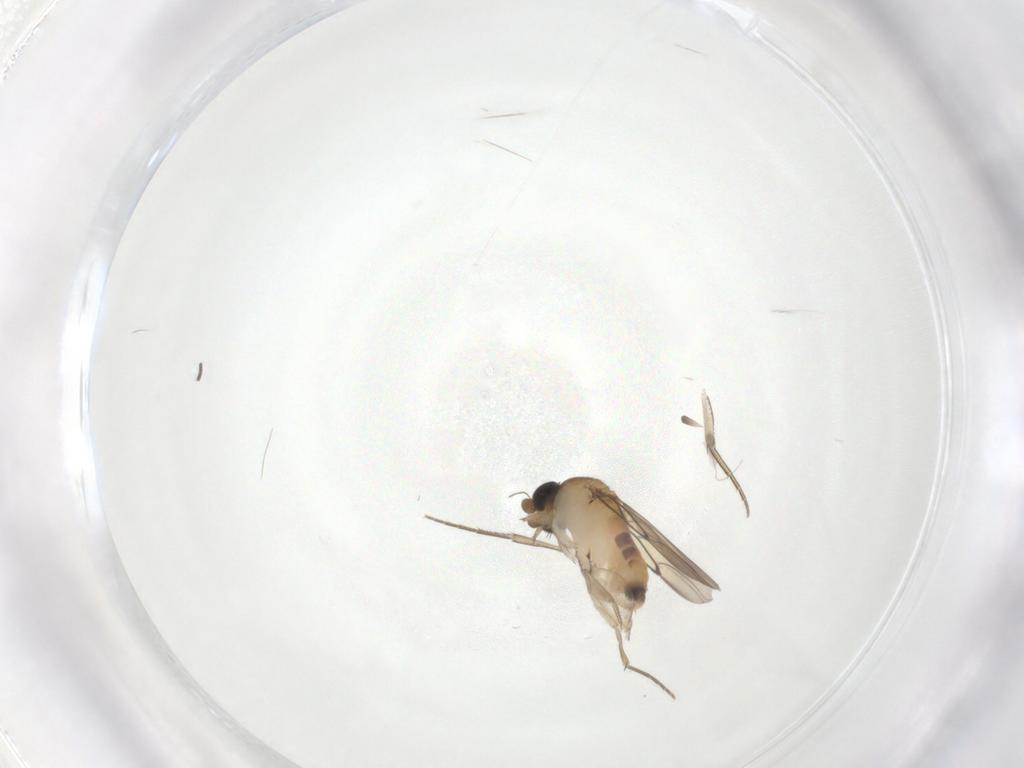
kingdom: Animalia
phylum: Arthropoda
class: Insecta
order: Diptera
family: Phoridae
